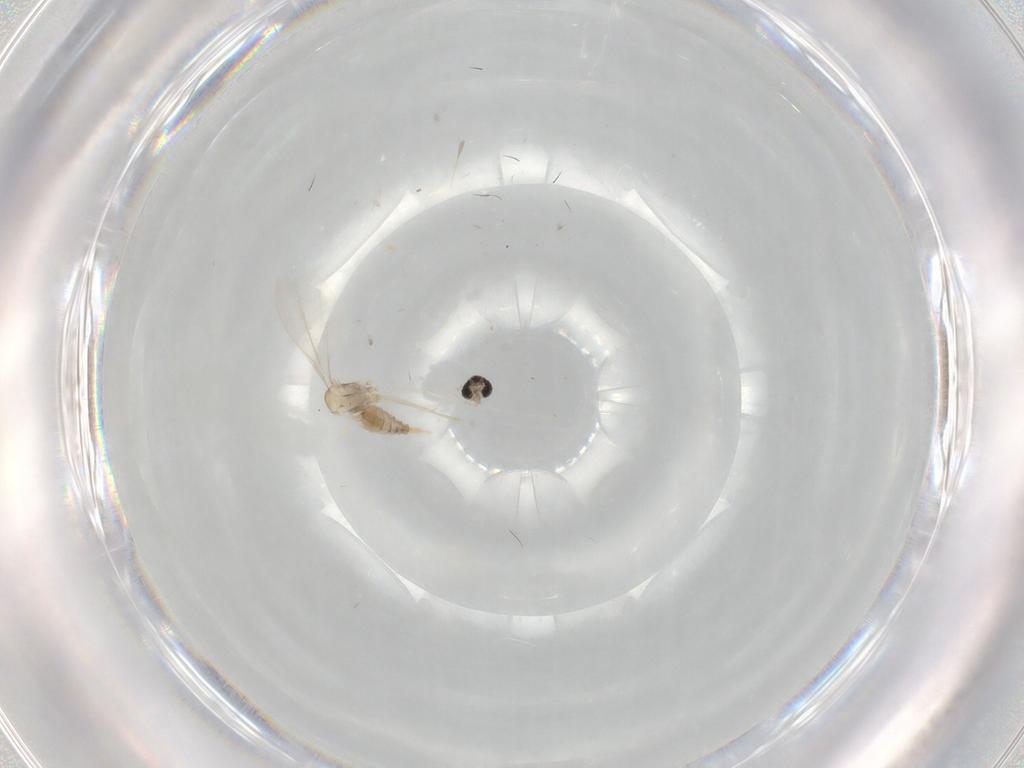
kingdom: Animalia
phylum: Arthropoda
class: Insecta
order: Diptera
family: Cecidomyiidae
